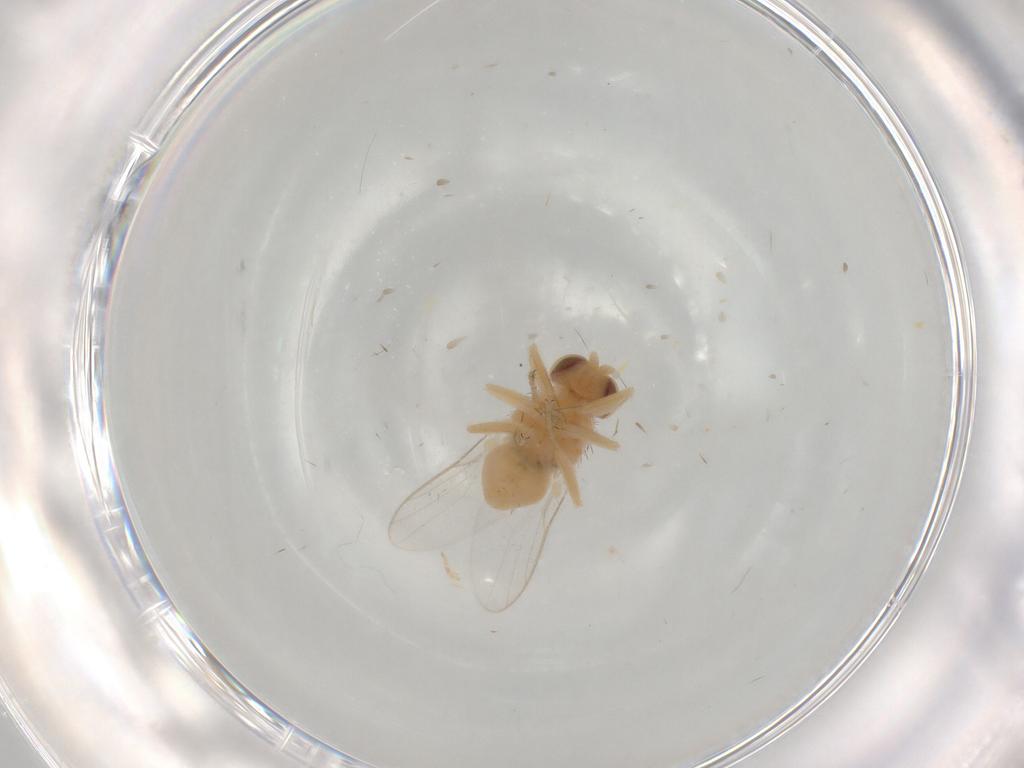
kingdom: Animalia
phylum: Arthropoda
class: Insecta
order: Diptera
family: Chloropidae
